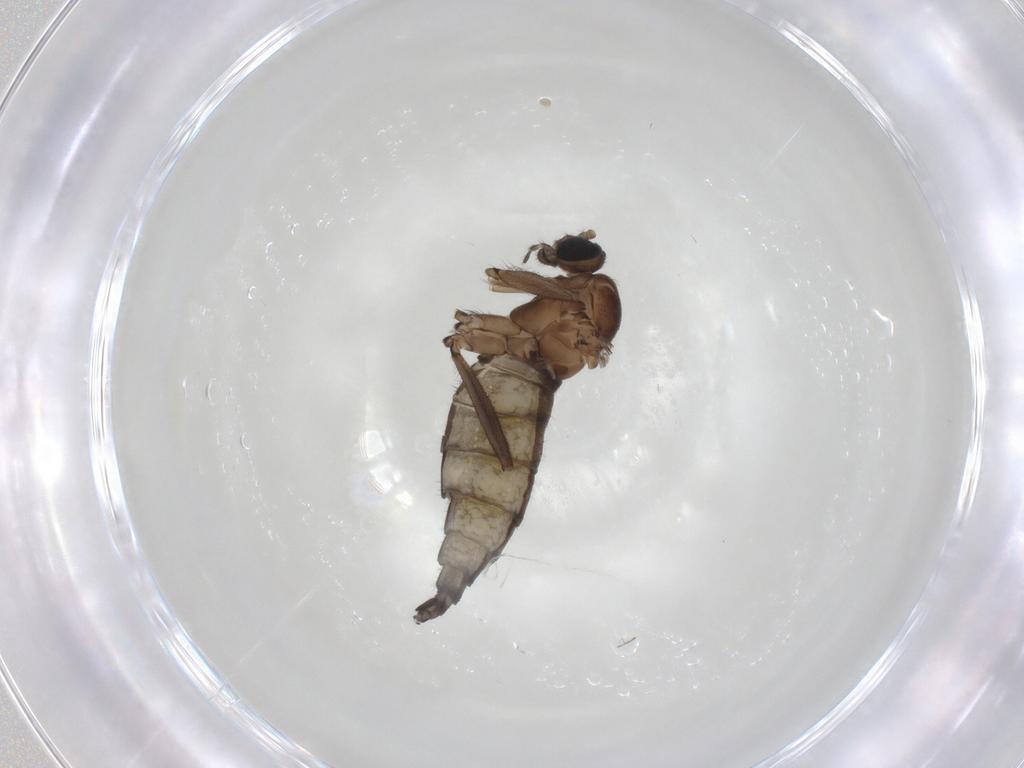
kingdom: Animalia
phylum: Arthropoda
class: Insecta
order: Diptera
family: Sciaridae
